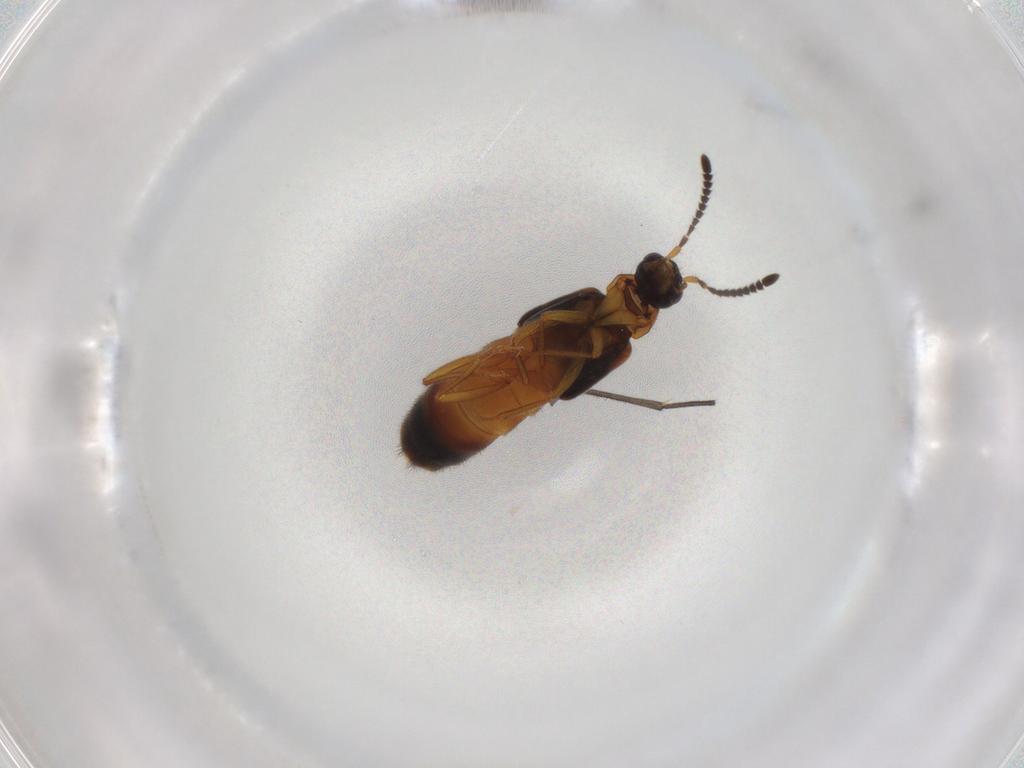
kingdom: Animalia
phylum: Arthropoda
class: Insecta
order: Coleoptera
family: Staphylinidae
